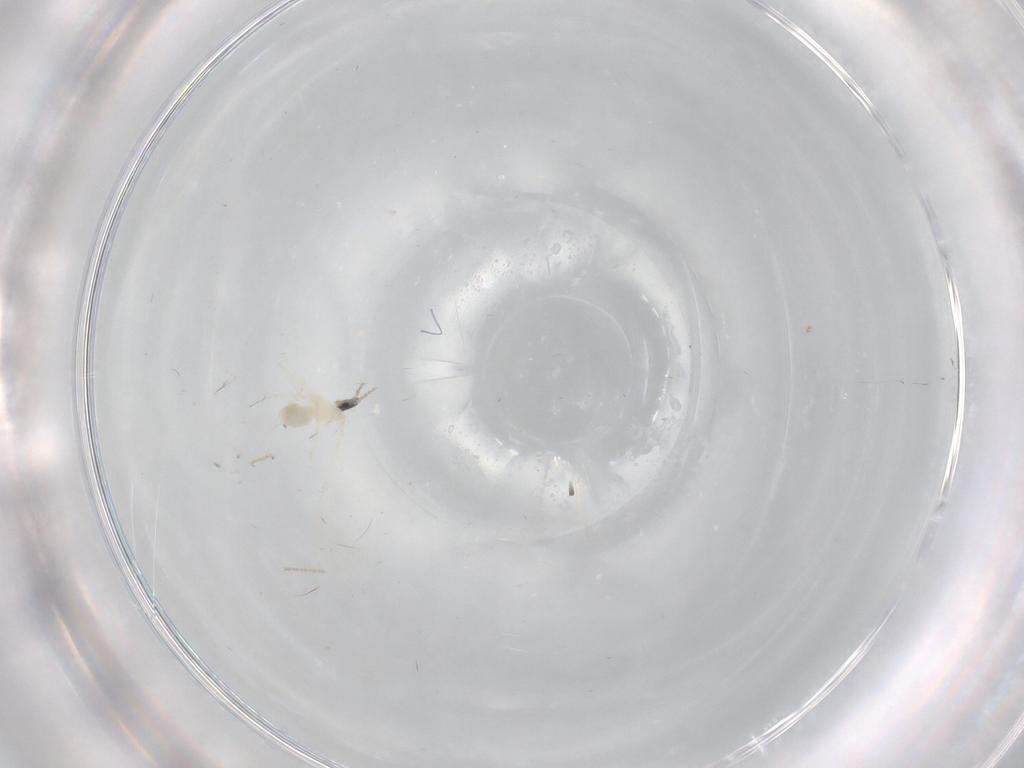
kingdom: Animalia
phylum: Arthropoda
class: Insecta
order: Diptera
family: Cecidomyiidae
